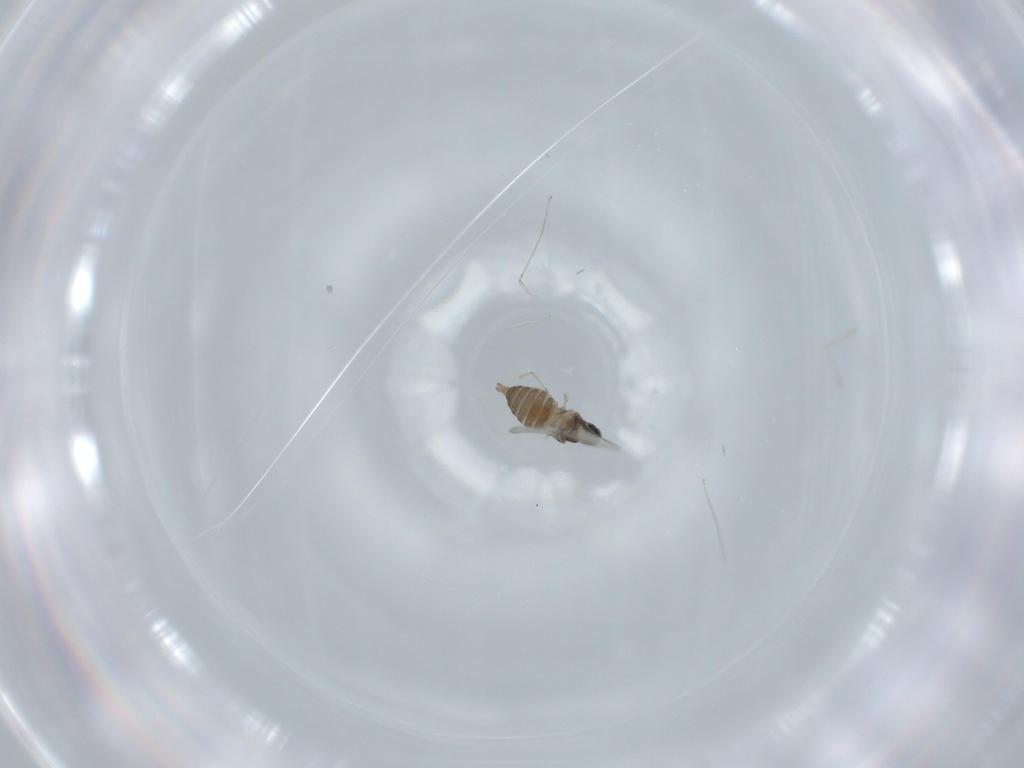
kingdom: Animalia
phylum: Arthropoda
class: Insecta
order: Diptera
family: Cecidomyiidae
